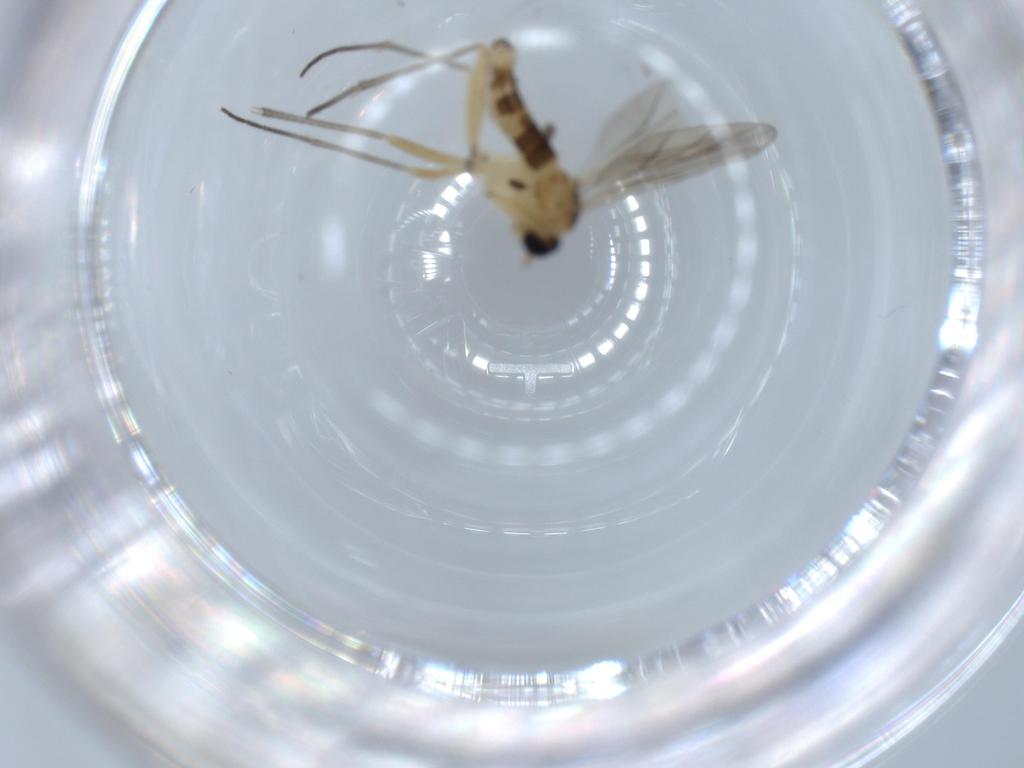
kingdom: Animalia
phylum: Arthropoda
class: Insecta
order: Diptera
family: Sciaridae
